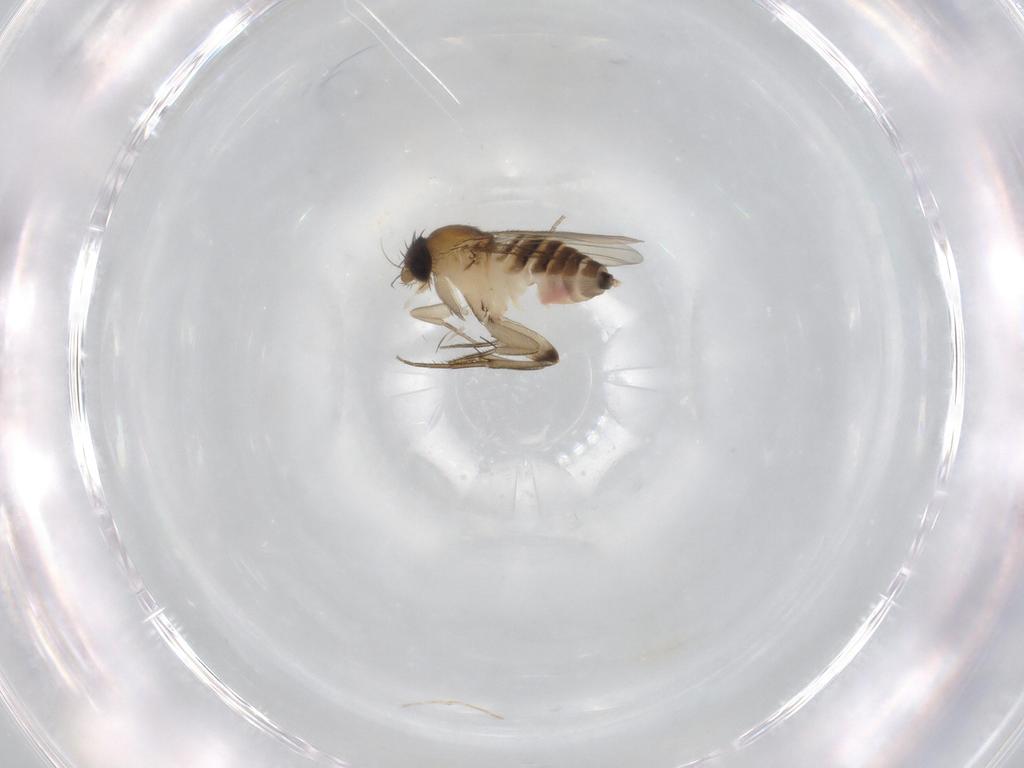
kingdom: Animalia
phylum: Arthropoda
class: Insecta
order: Diptera
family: Phoridae
